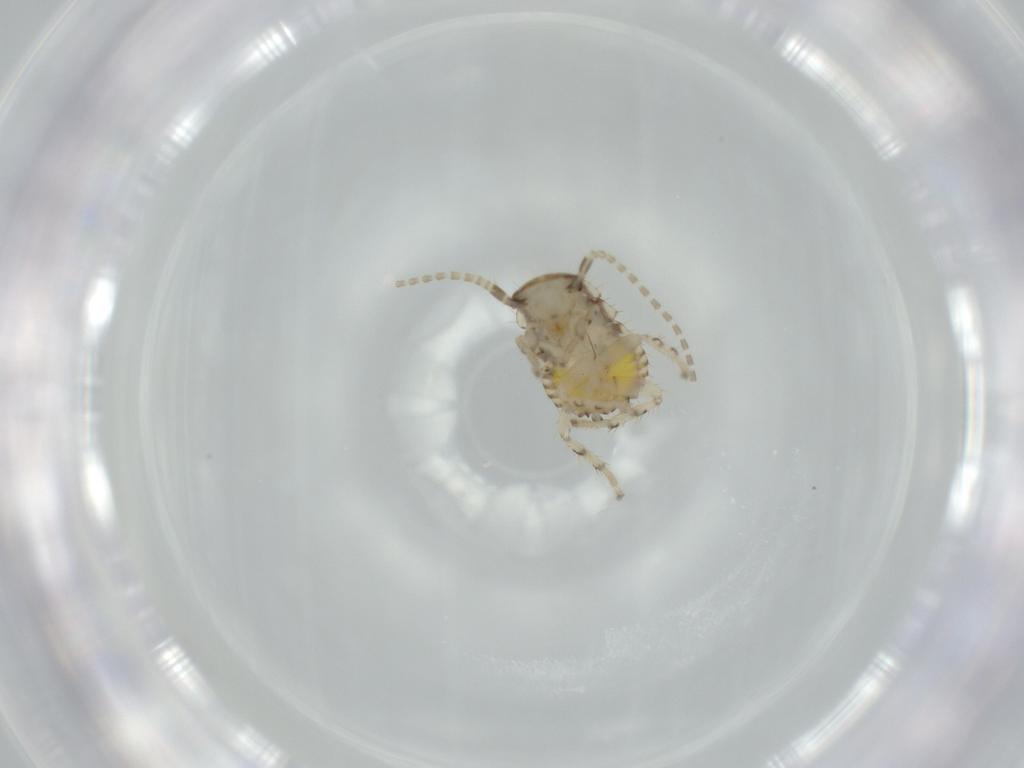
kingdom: Animalia
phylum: Arthropoda
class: Insecta
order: Blattodea
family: Ectobiidae
